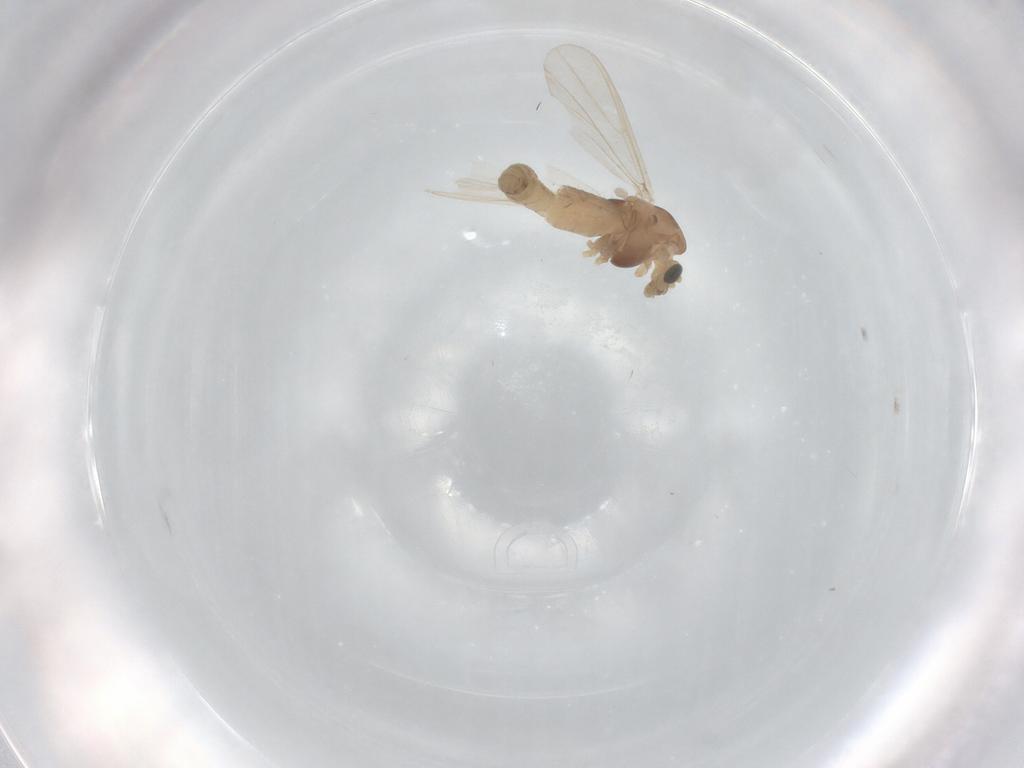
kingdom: Animalia
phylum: Arthropoda
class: Insecta
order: Diptera
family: Chironomidae
